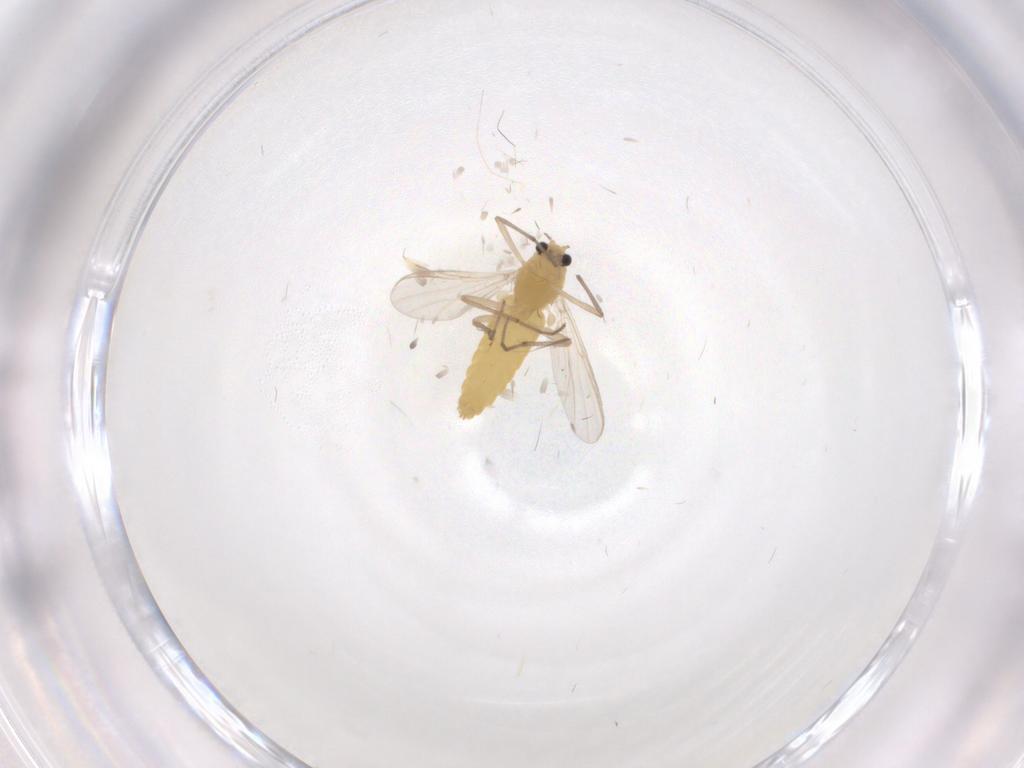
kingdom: Animalia
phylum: Arthropoda
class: Insecta
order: Diptera
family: Chironomidae
